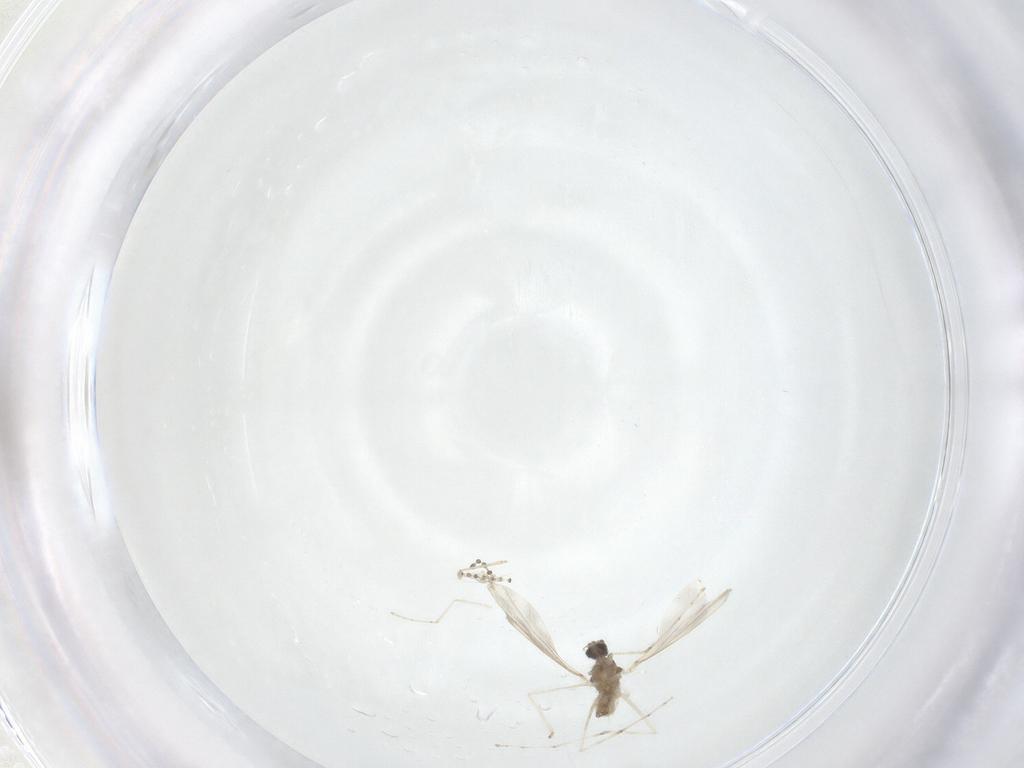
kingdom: Animalia
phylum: Arthropoda
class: Insecta
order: Diptera
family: Cecidomyiidae
